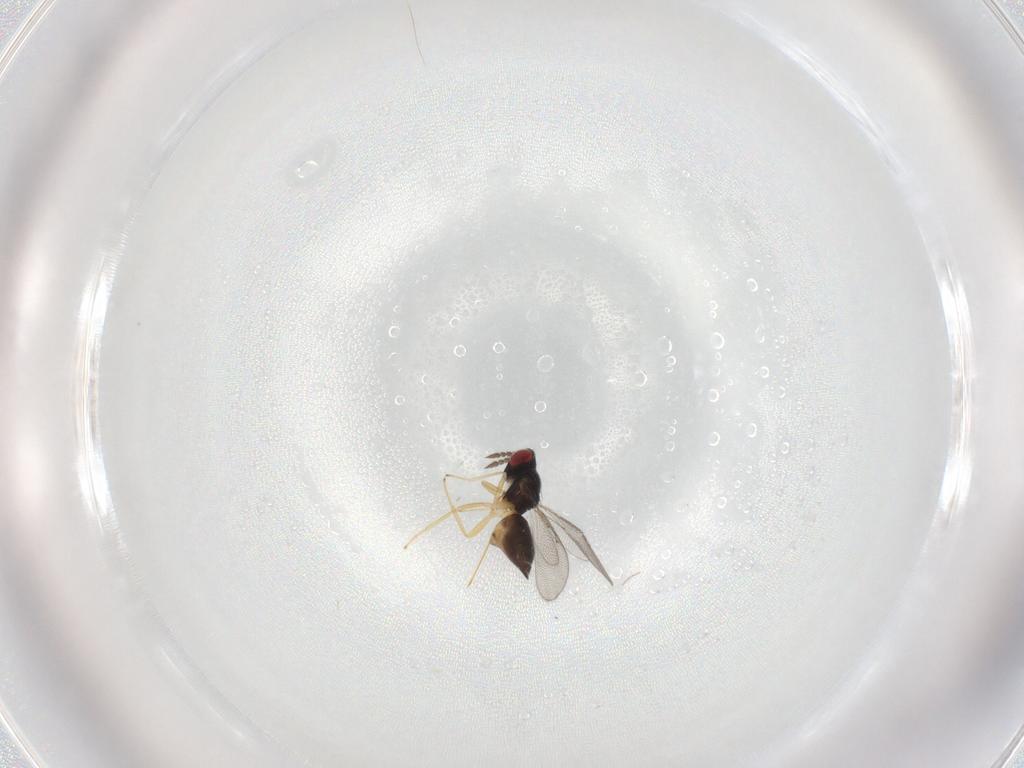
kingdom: Animalia
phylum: Arthropoda
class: Insecta
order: Hymenoptera
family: Eulophidae
